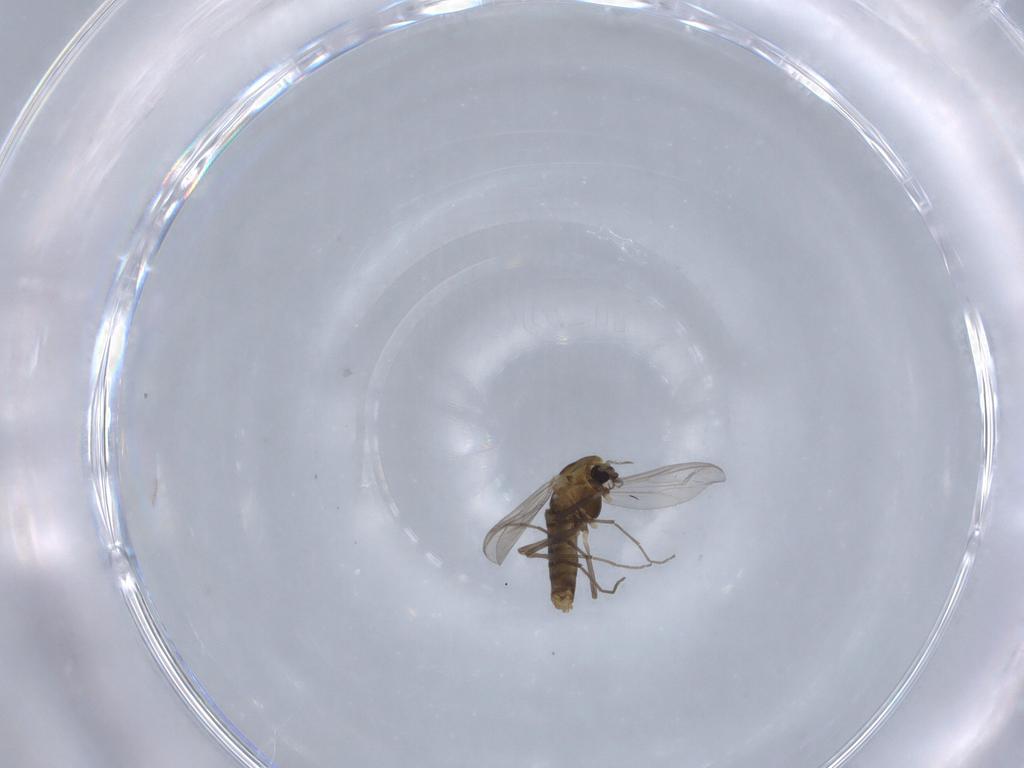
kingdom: Animalia
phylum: Arthropoda
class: Insecta
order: Diptera
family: Chironomidae
